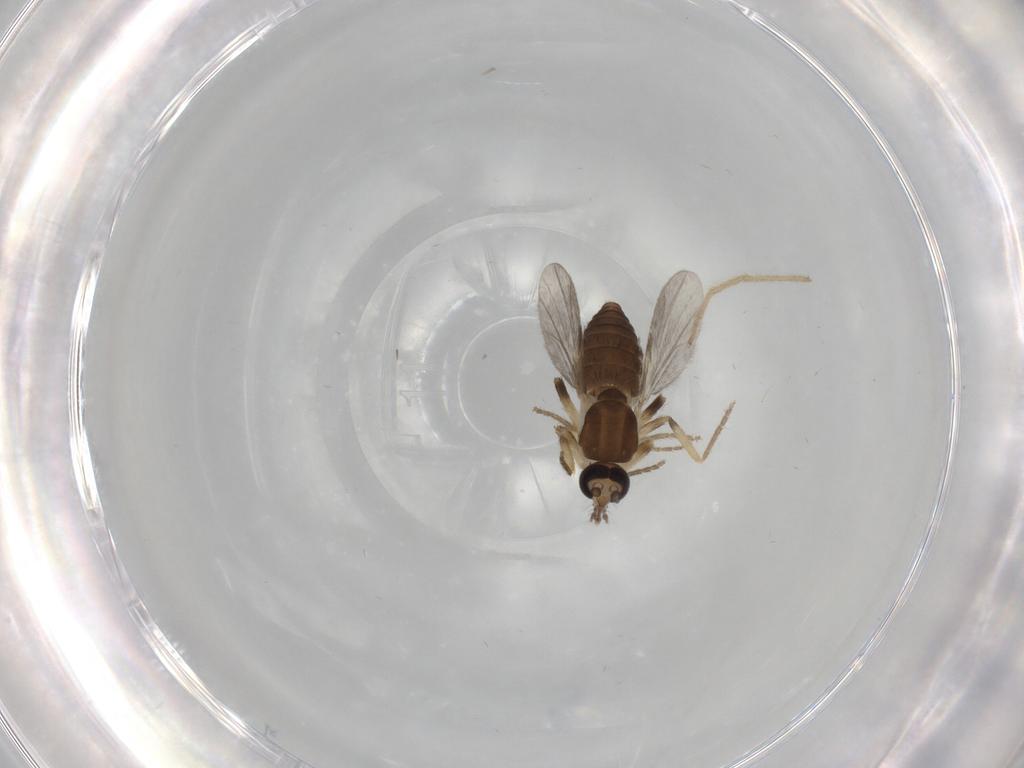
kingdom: Animalia
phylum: Arthropoda
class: Insecta
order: Diptera
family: Ceratopogonidae
